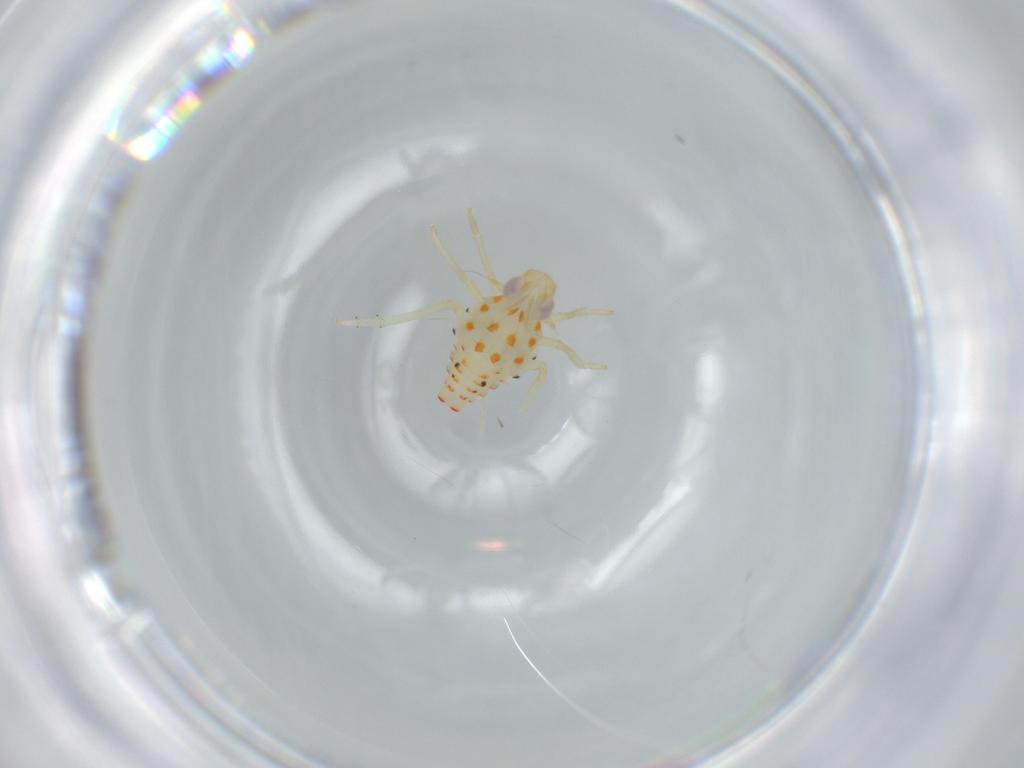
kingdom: Animalia
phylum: Arthropoda
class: Insecta
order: Hemiptera
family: Tropiduchidae
